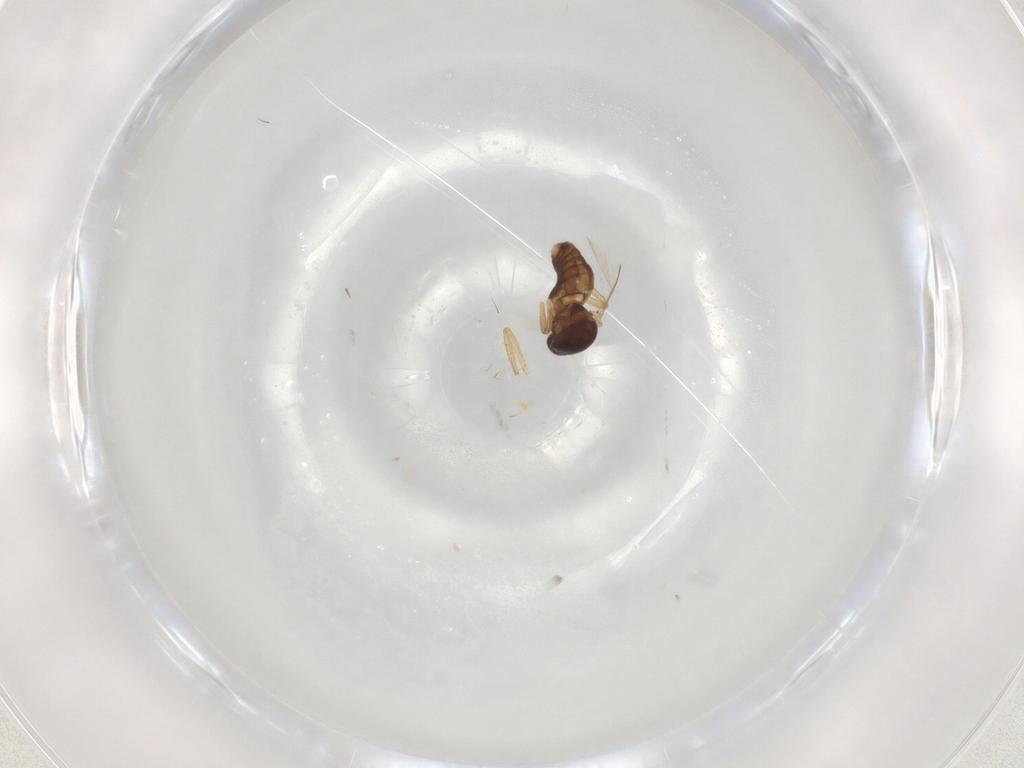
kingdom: Animalia
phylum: Arthropoda
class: Insecta
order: Diptera
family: Ceratopogonidae
